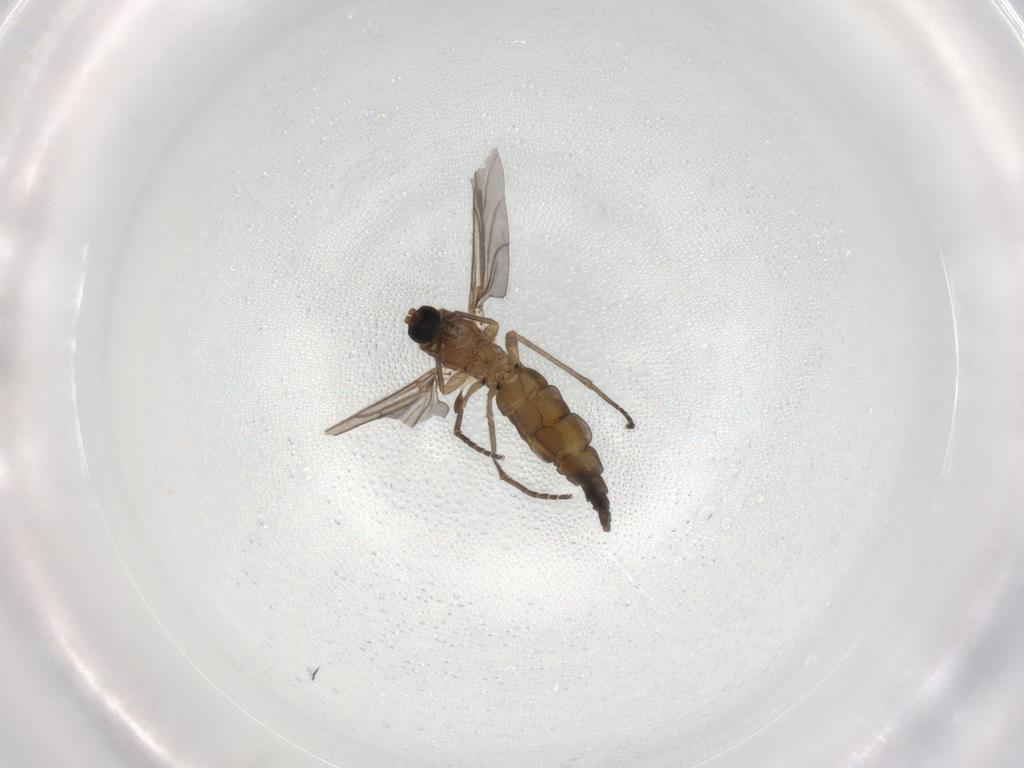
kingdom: Animalia
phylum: Arthropoda
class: Insecta
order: Diptera
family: Sciaridae
